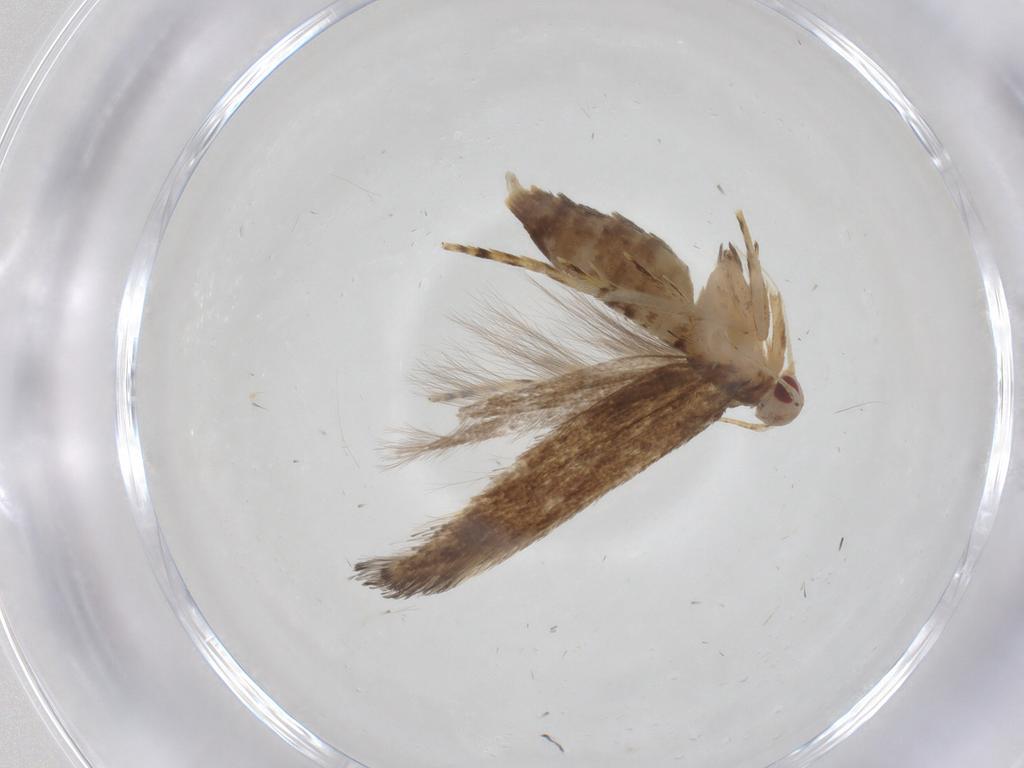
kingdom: Animalia
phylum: Arthropoda
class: Insecta
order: Lepidoptera
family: Cosmopterigidae
